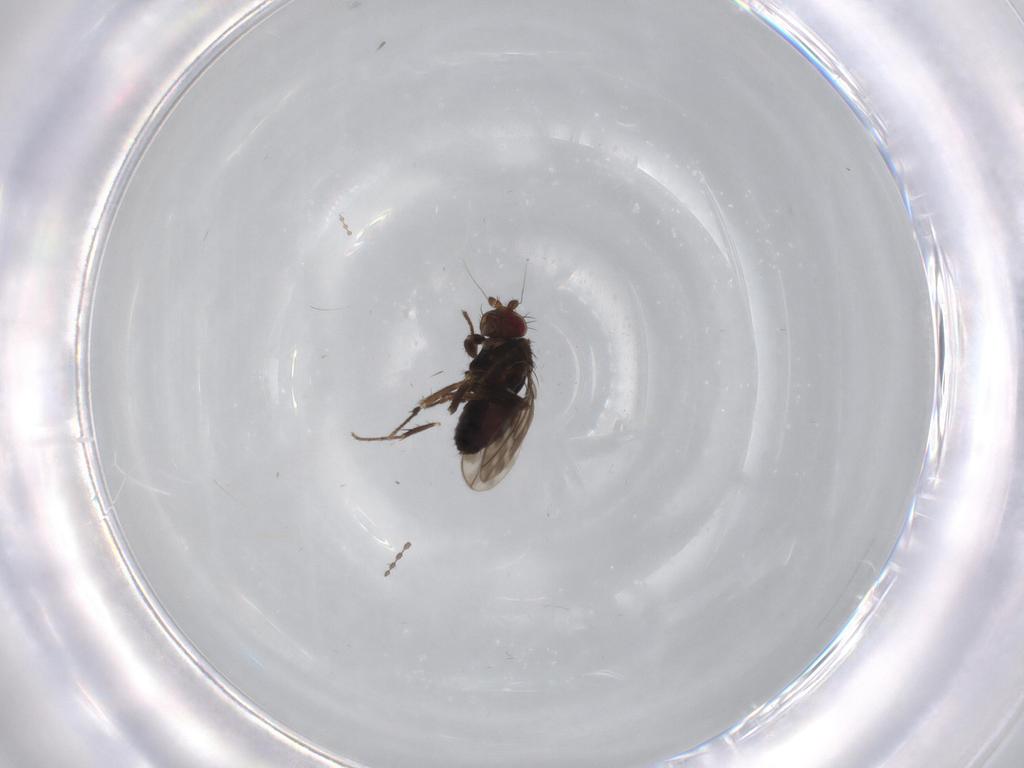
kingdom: Animalia
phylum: Arthropoda
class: Insecta
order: Diptera
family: Sphaeroceridae
